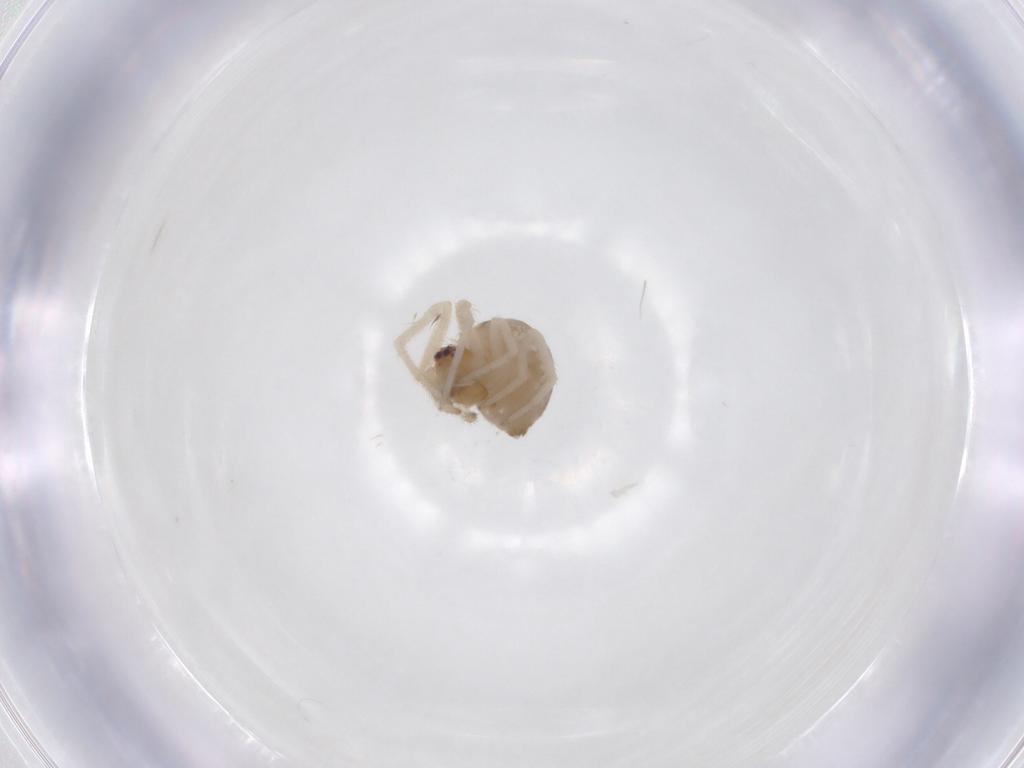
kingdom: Animalia
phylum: Arthropoda
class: Arachnida
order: Araneae
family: Theridiidae
